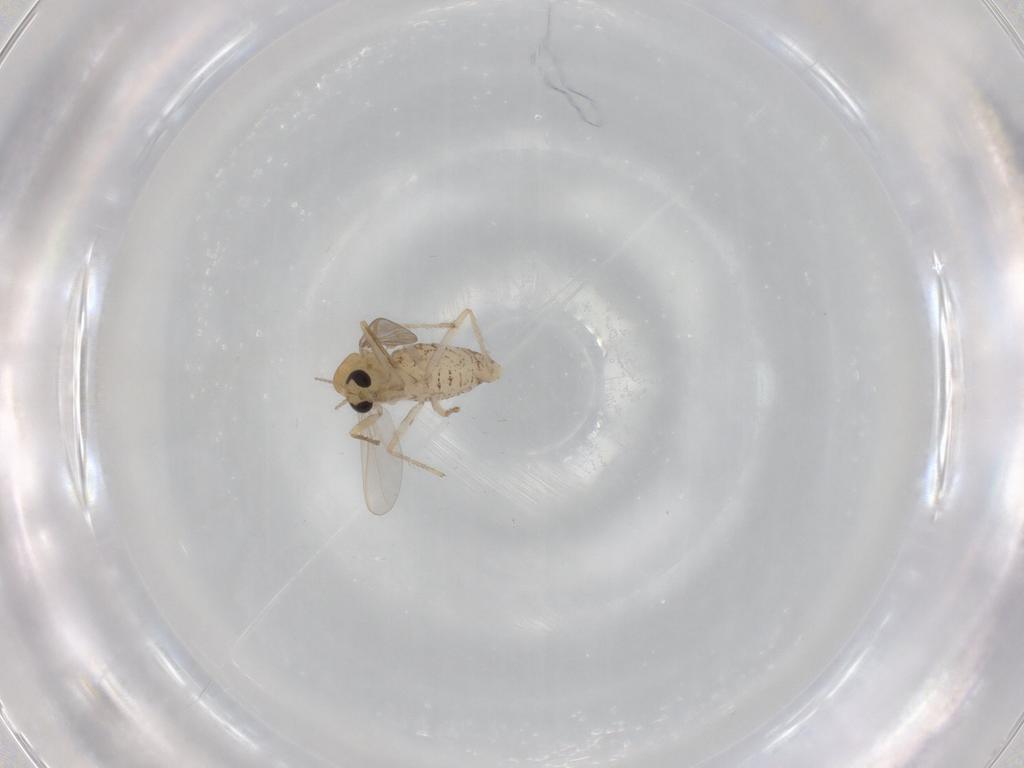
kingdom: Animalia
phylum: Arthropoda
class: Insecta
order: Diptera
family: Chironomidae
